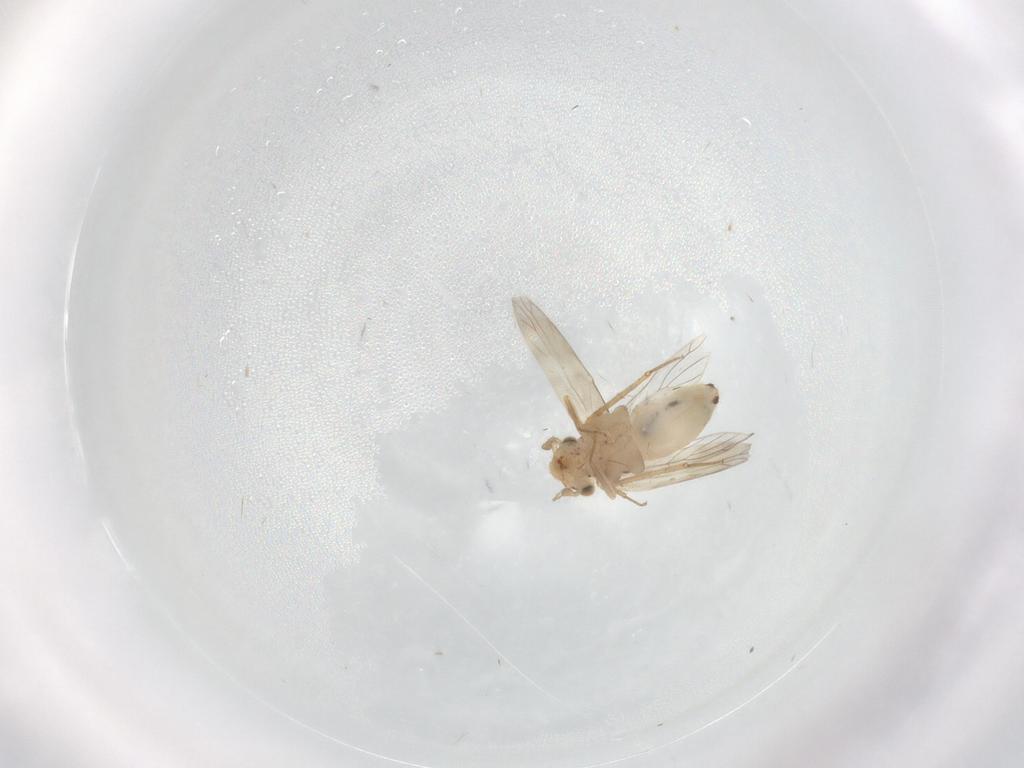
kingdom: Animalia
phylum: Arthropoda
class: Insecta
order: Psocodea
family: Lepidopsocidae
